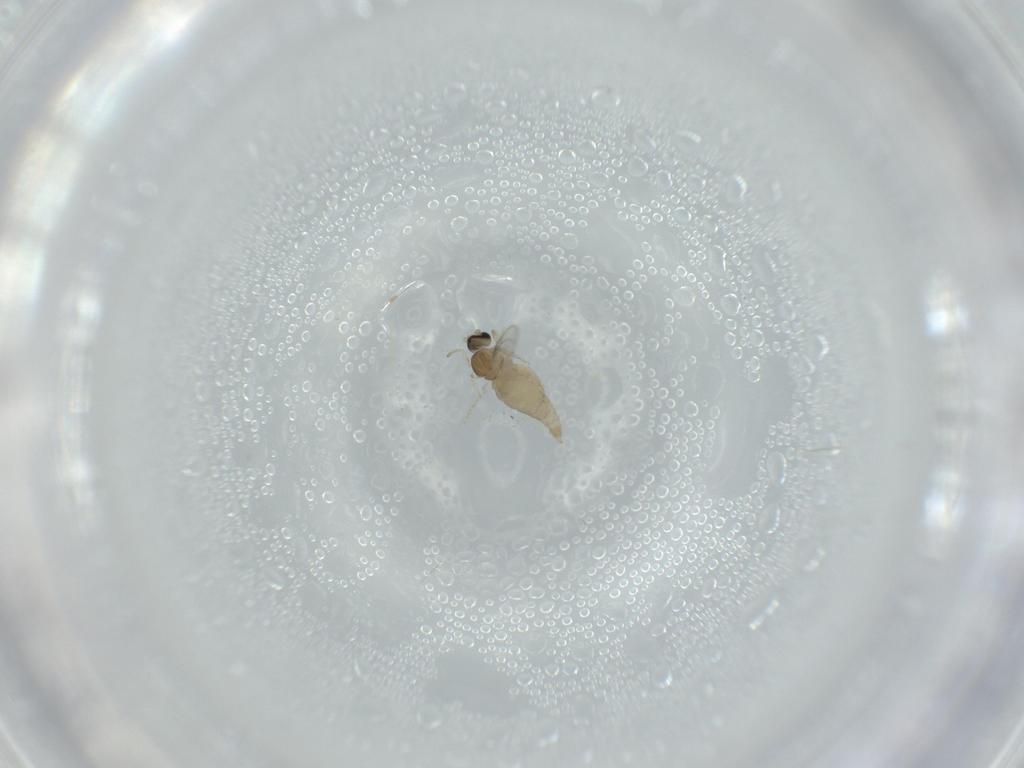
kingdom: Animalia
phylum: Arthropoda
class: Insecta
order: Diptera
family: Cecidomyiidae
